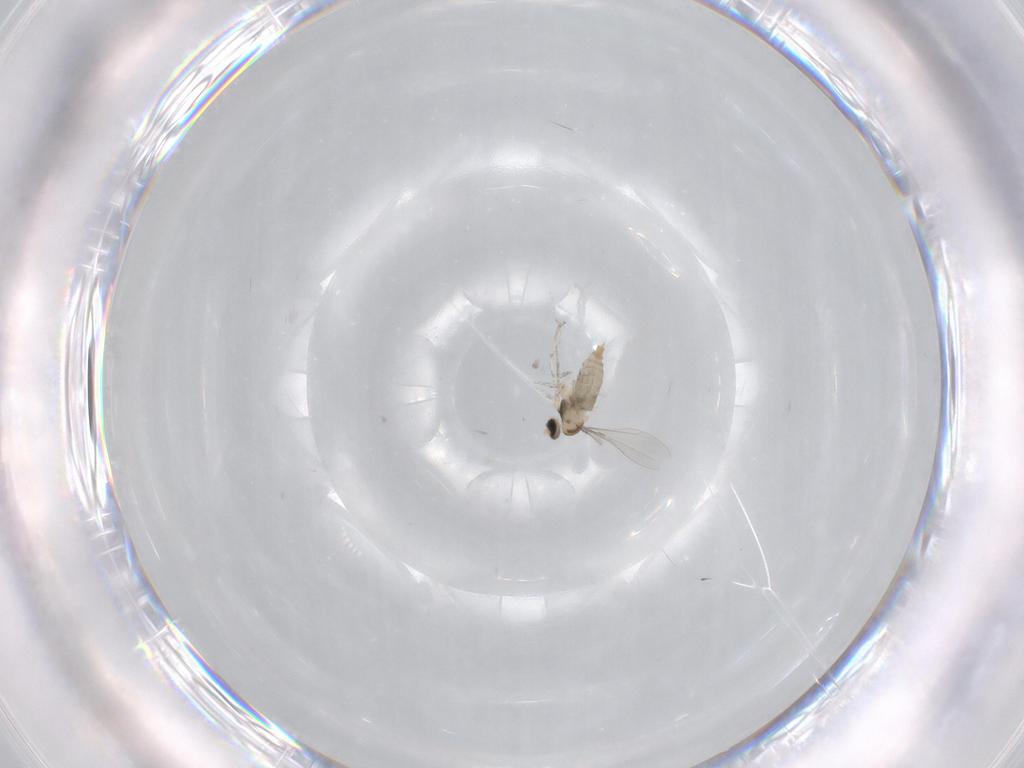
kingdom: Animalia
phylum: Arthropoda
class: Insecta
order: Diptera
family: Cecidomyiidae
